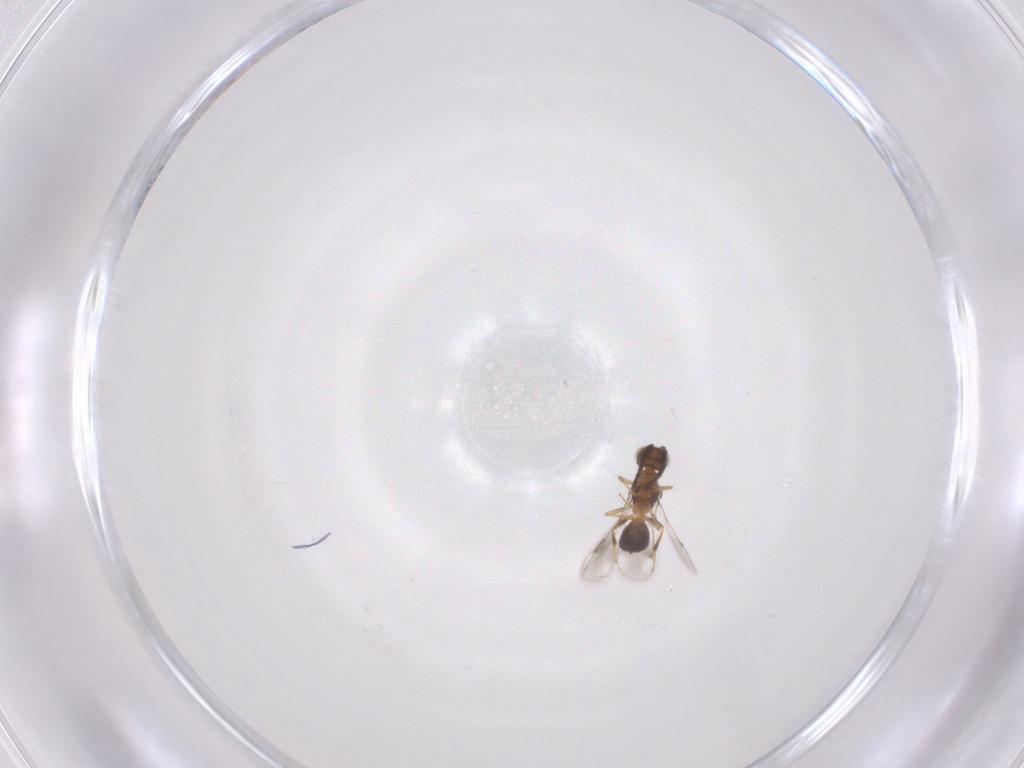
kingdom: Animalia
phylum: Arthropoda
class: Insecta
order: Hymenoptera
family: Pteromalidae
